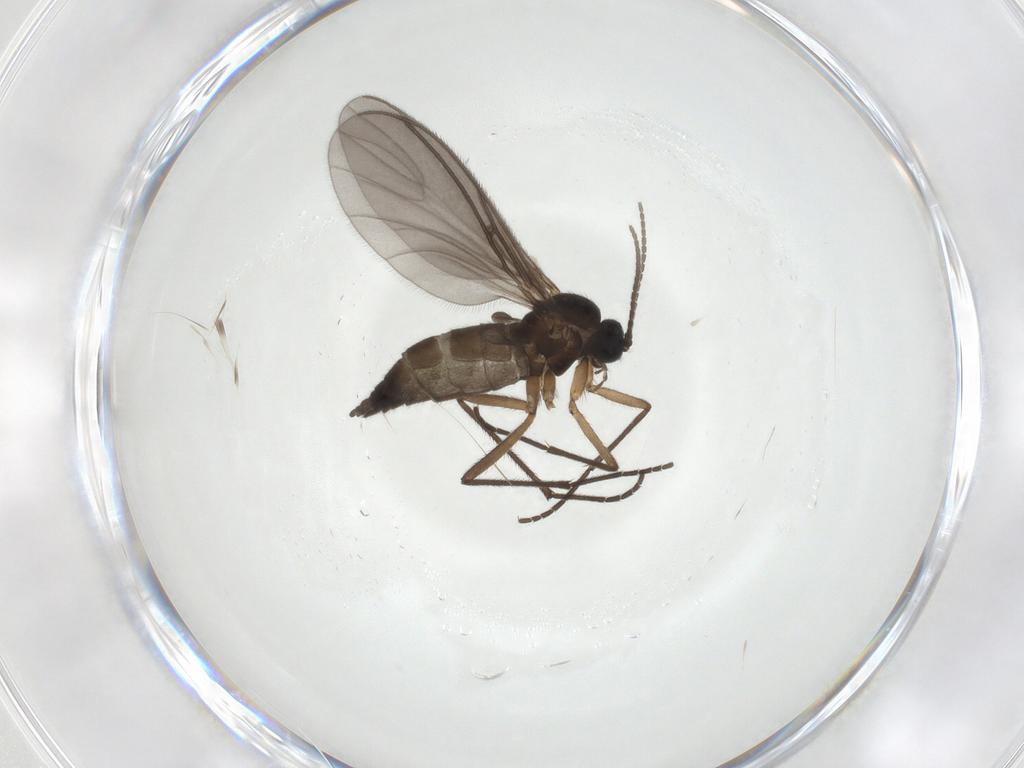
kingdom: Animalia
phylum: Arthropoda
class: Insecta
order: Diptera
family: Sciaridae
